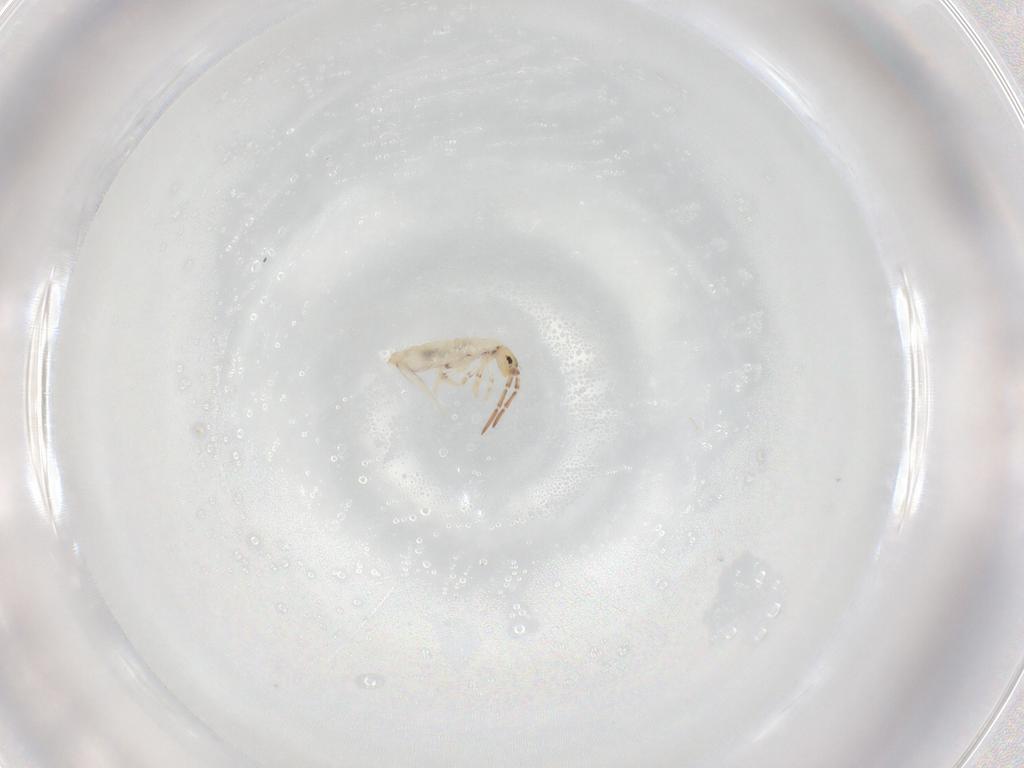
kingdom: Animalia
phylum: Arthropoda
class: Collembola
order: Entomobryomorpha
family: Entomobryidae
